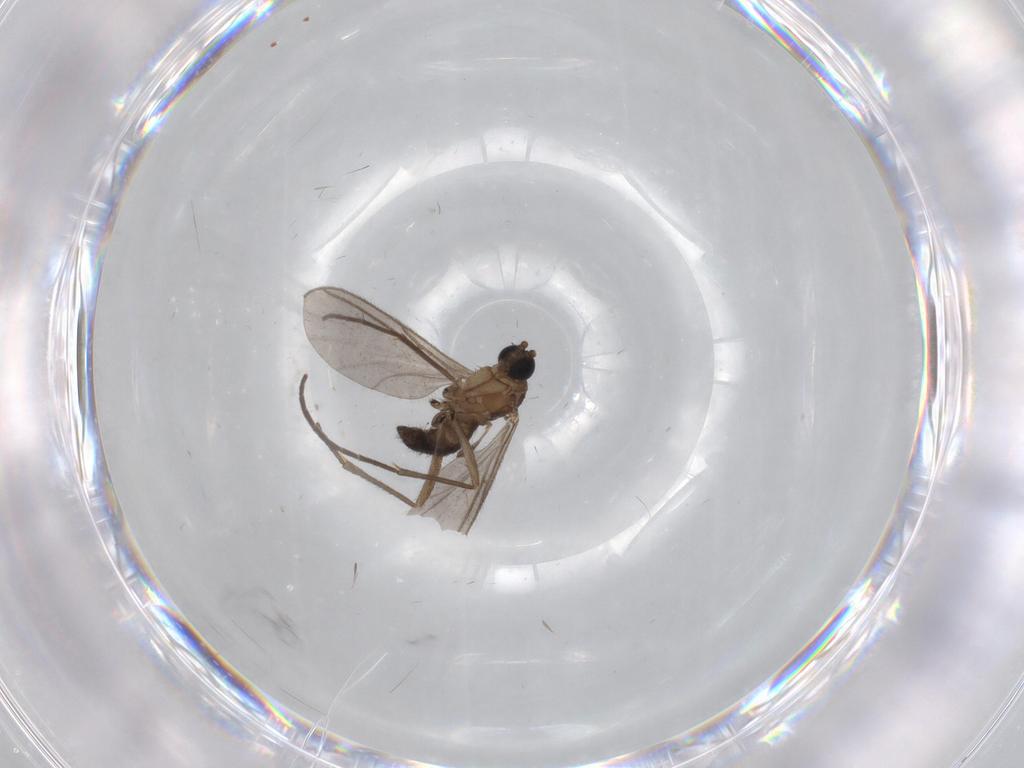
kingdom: Animalia
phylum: Arthropoda
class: Insecta
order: Diptera
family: Sciaridae
